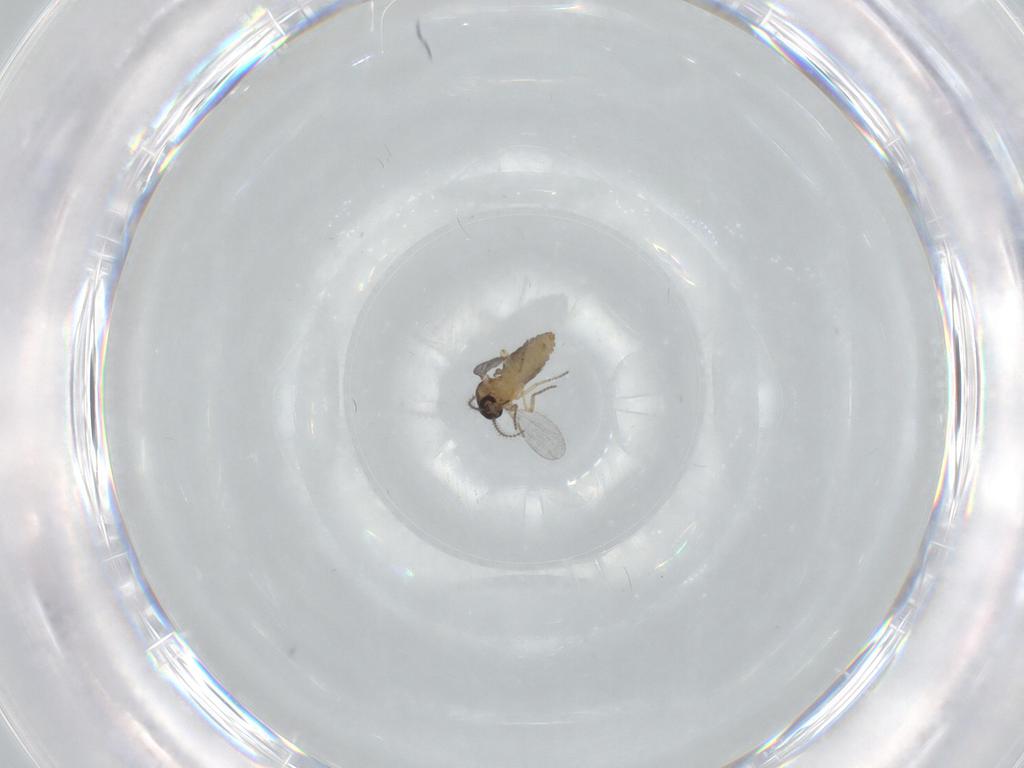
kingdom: Animalia
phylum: Arthropoda
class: Insecta
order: Diptera
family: Ceratopogonidae
